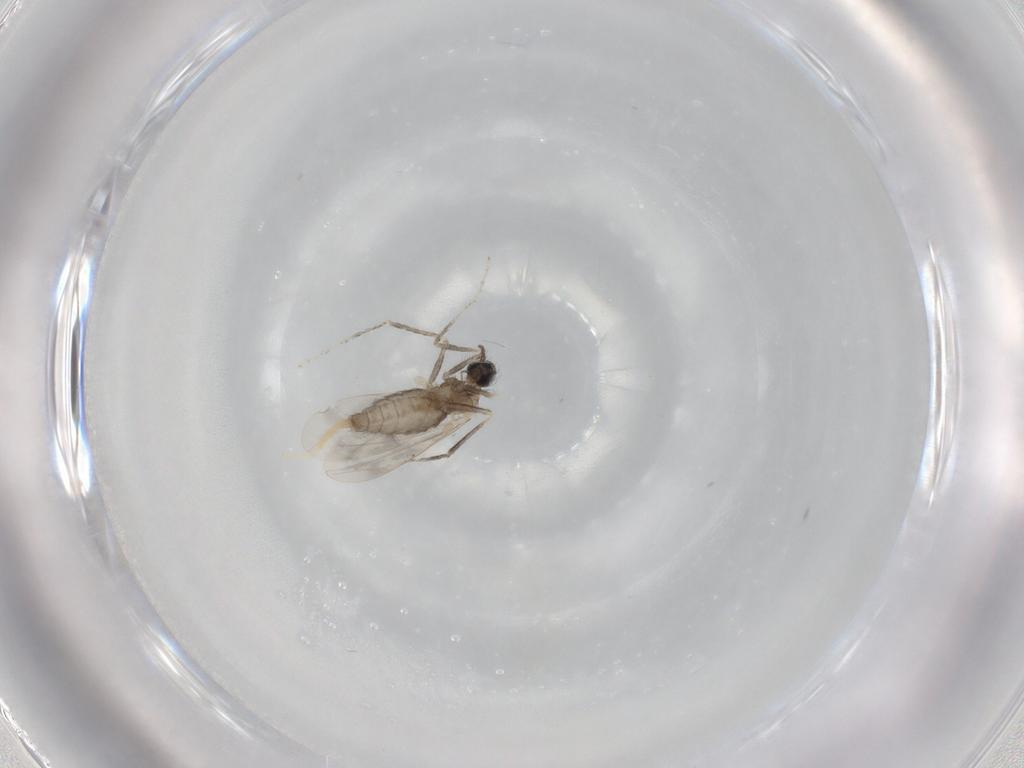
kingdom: Animalia
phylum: Arthropoda
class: Insecta
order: Diptera
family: Cecidomyiidae
